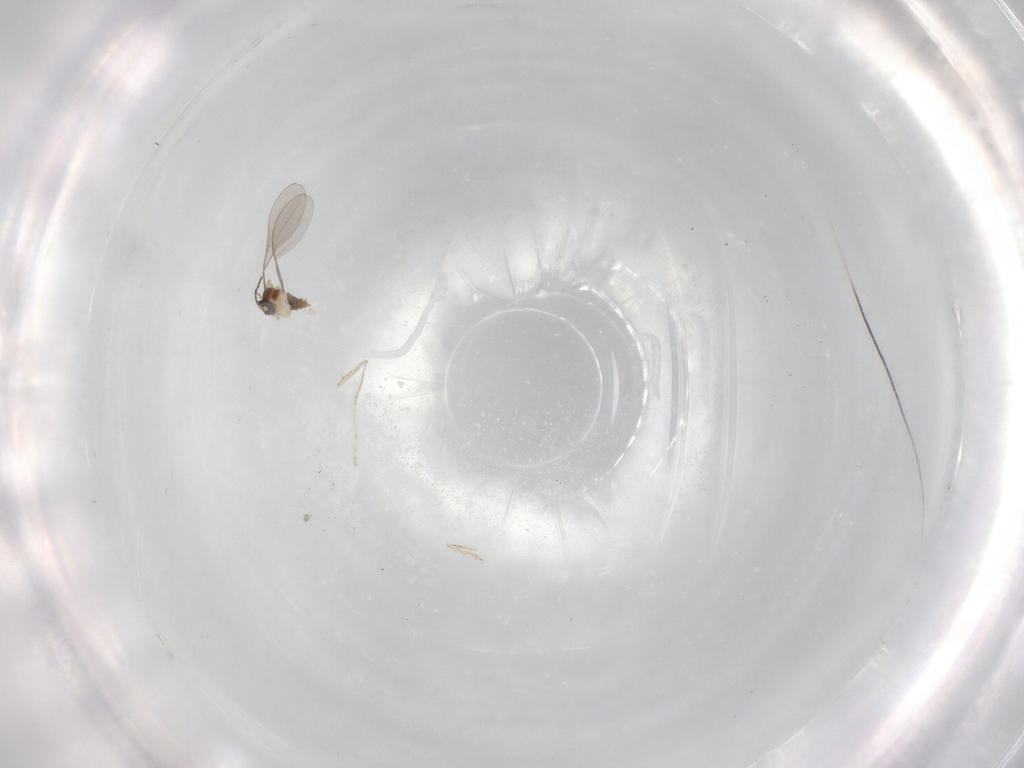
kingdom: Animalia
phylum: Arthropoda
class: Insecta
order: Diptera
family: Cecidomyiidae
